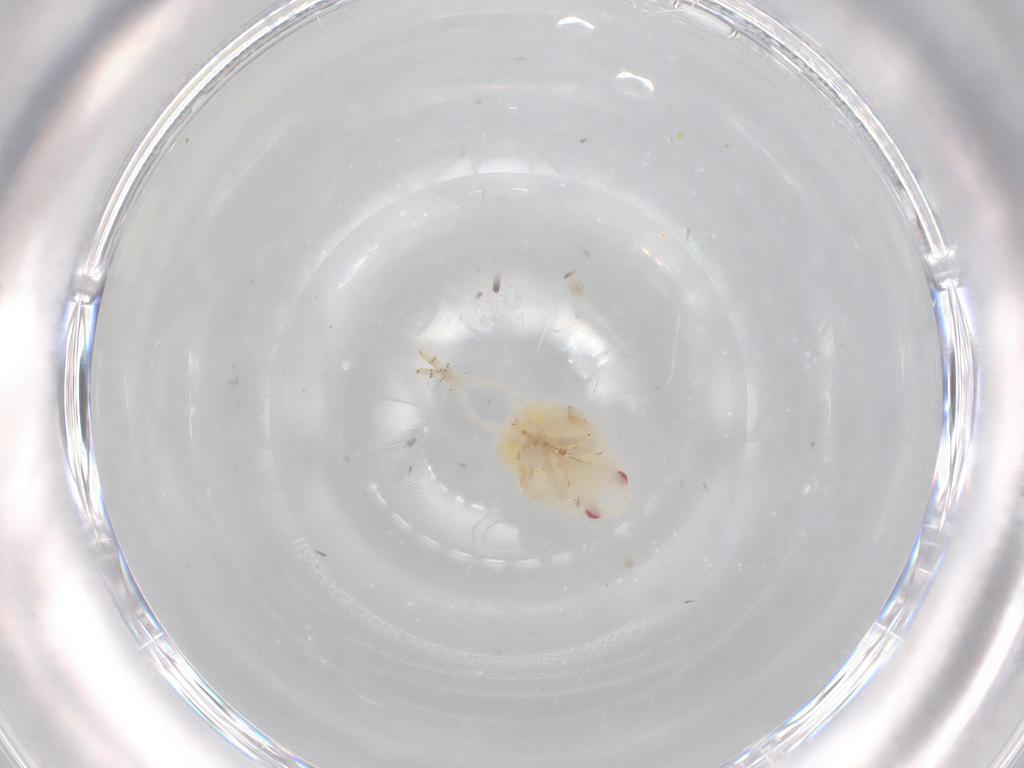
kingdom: Animalia
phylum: Arthropoda
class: Insecta
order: Hemiptera
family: Flatidae
